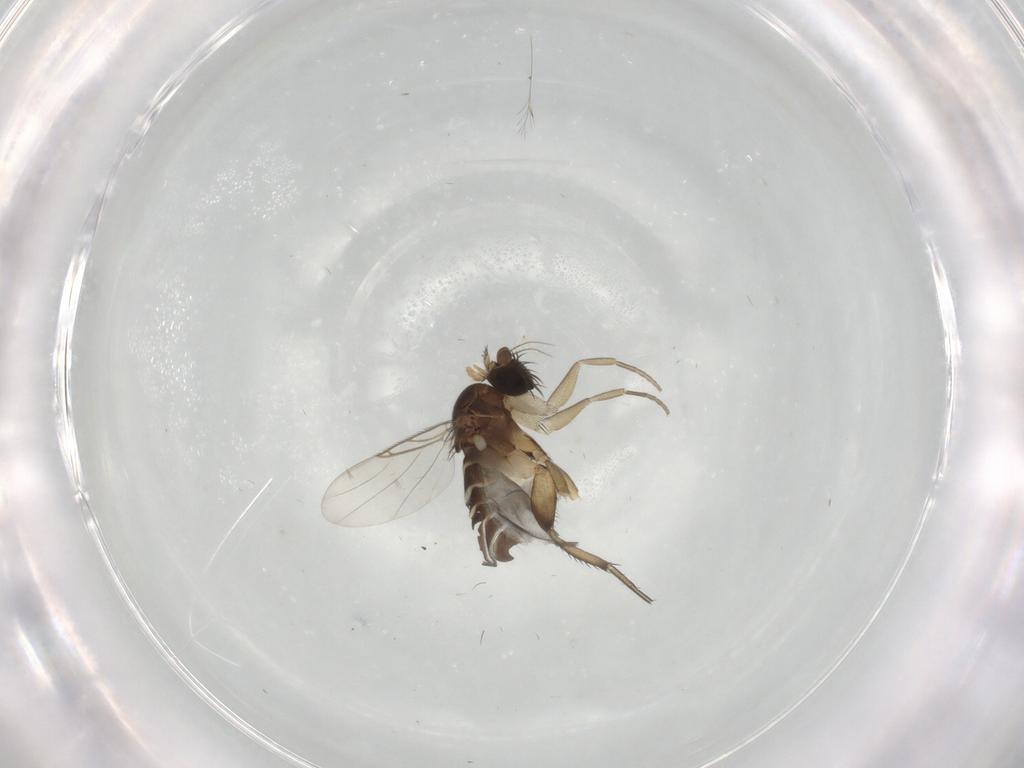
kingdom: Animalia
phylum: Arthropoda
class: Insecta
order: Diptera
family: Phoridae
